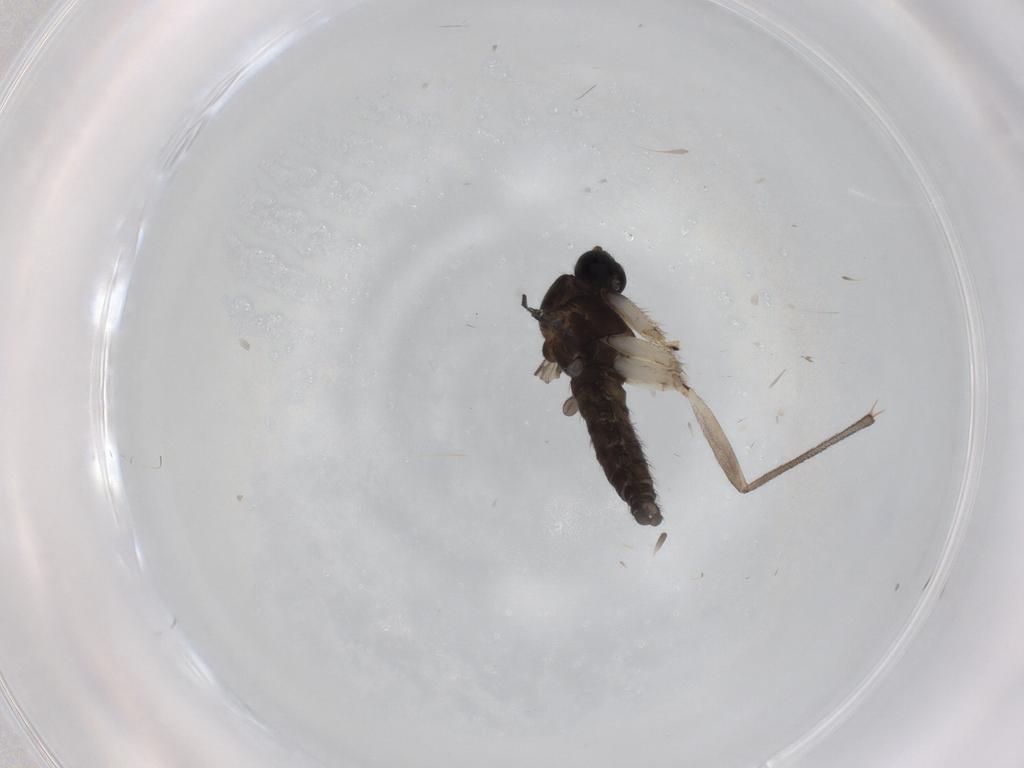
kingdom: Animalia
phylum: Arthropoda
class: Insecta
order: Diptera
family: Sciaridae
